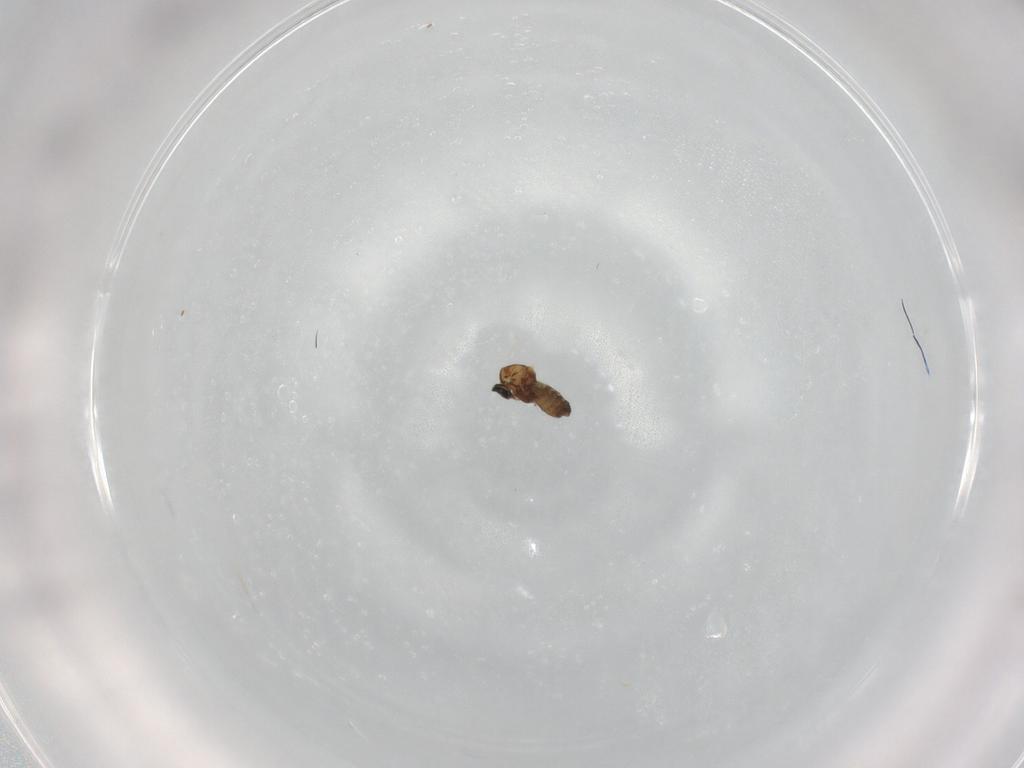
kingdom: Animalia
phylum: Arthropoda
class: Insecta
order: Diptera
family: Ceratopogonidae
